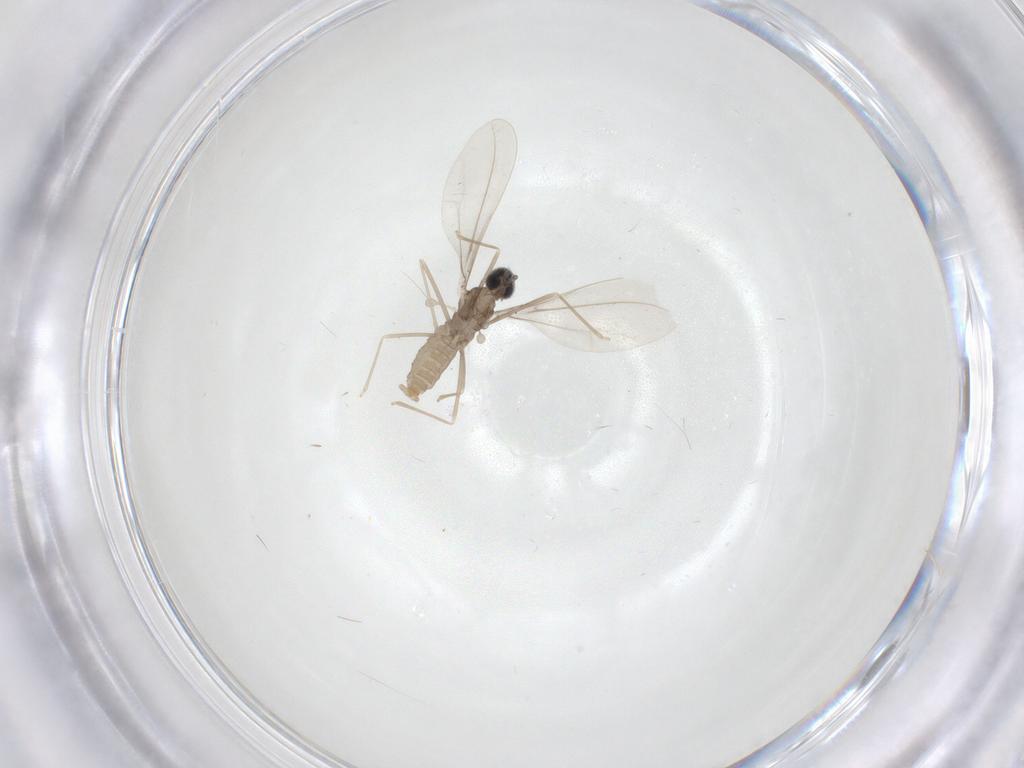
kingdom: Animalia
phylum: Arthropoda
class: Insecta
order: Diptera
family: Cecidomyiidae
